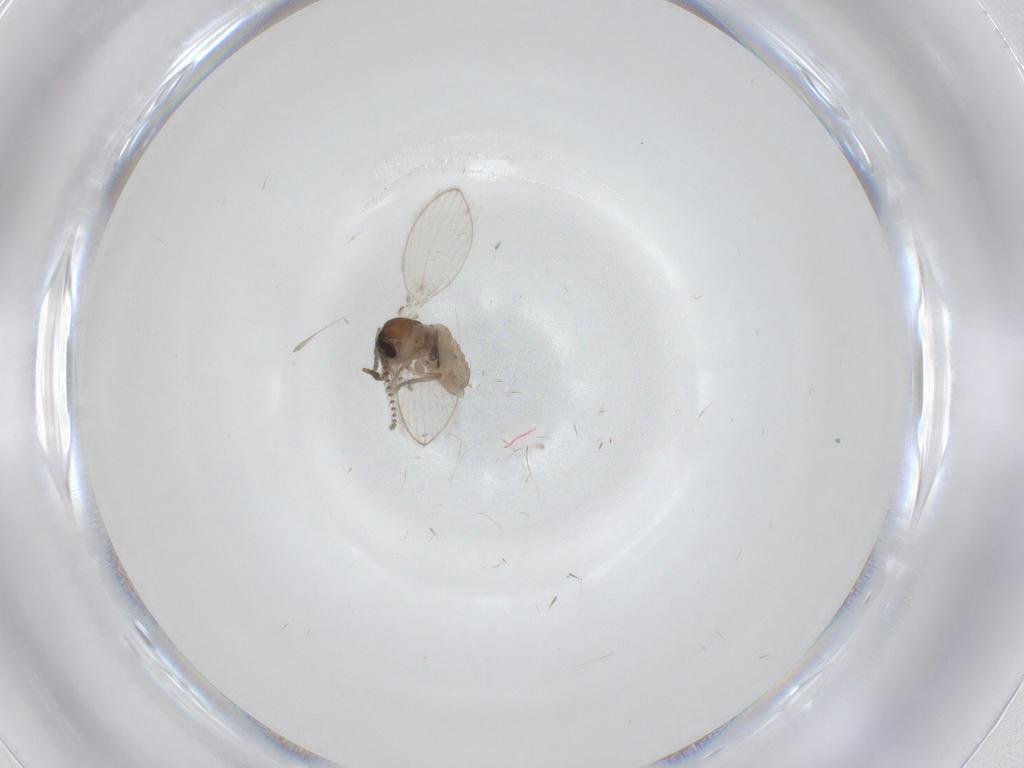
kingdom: Animalia
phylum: Arthropoda
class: Insecta
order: Diptera
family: Psychodidae
